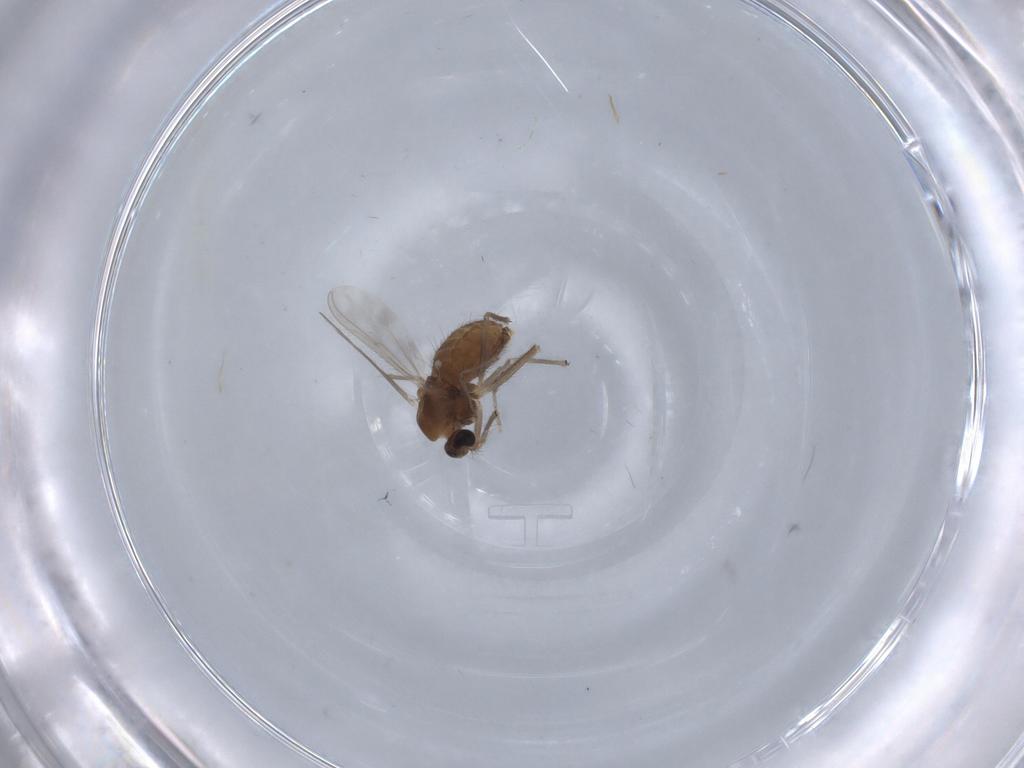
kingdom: Animalia
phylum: Arthropoda
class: Insecta
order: Diptera
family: Chironomidae
